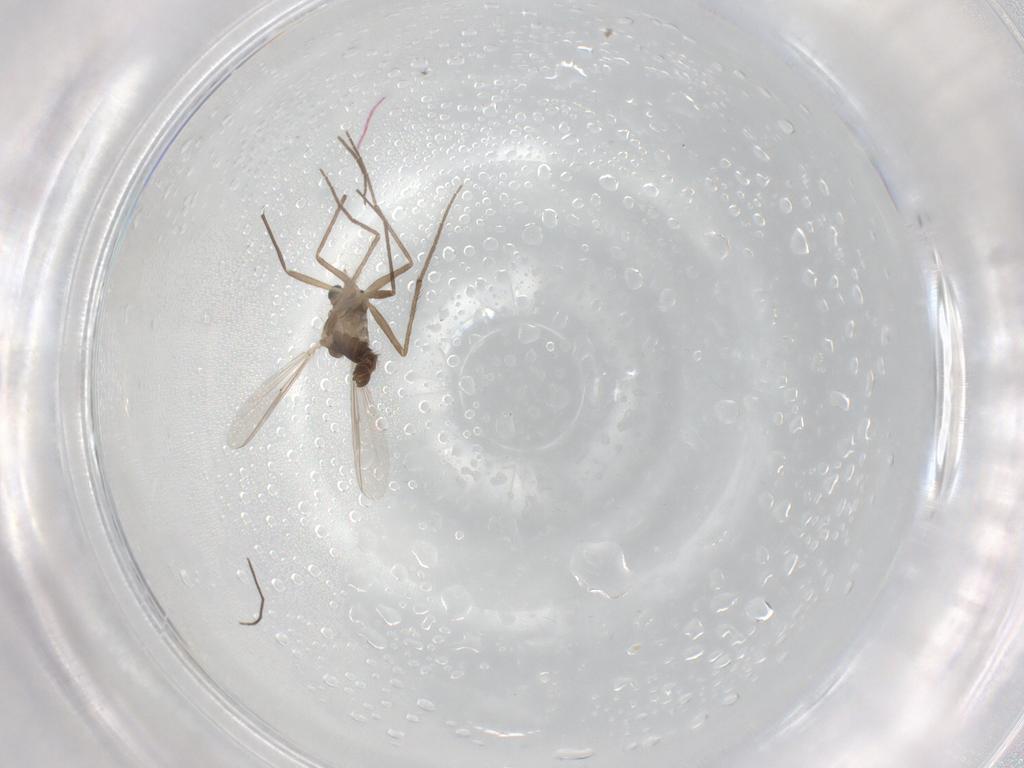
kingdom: Animalia
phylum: Arthropoda
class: Insecta
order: Diptera
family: Chironomidae
